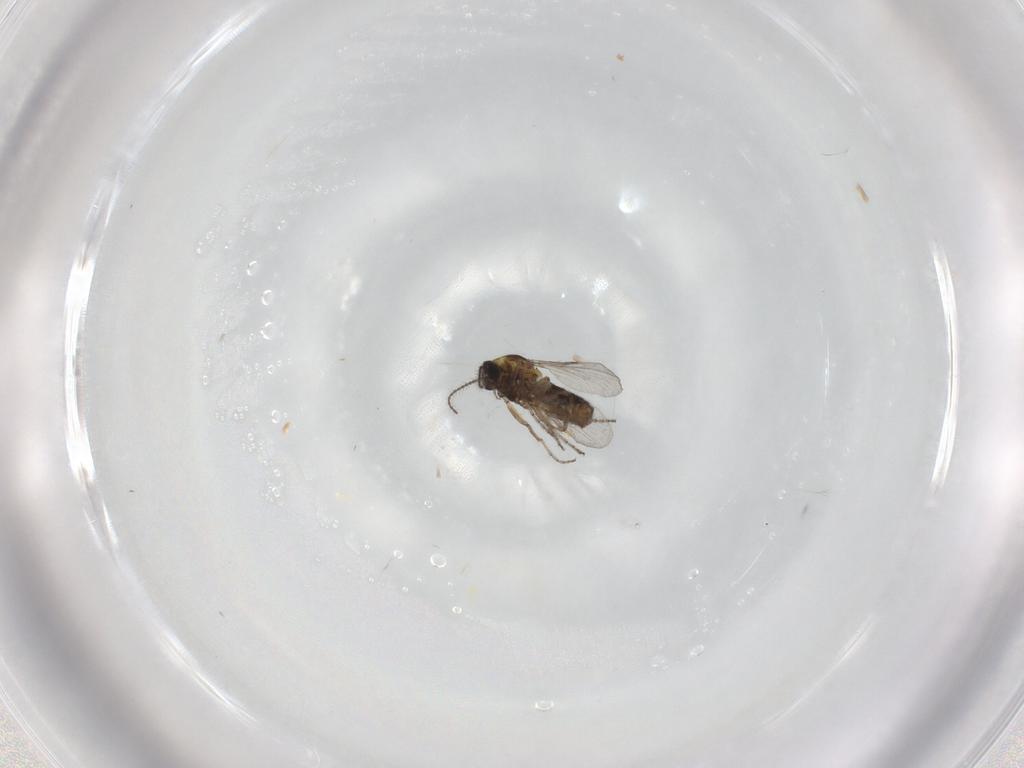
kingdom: Animalia
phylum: Arthropoda
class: Insecta
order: Diptera
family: Ceratopogonidae
